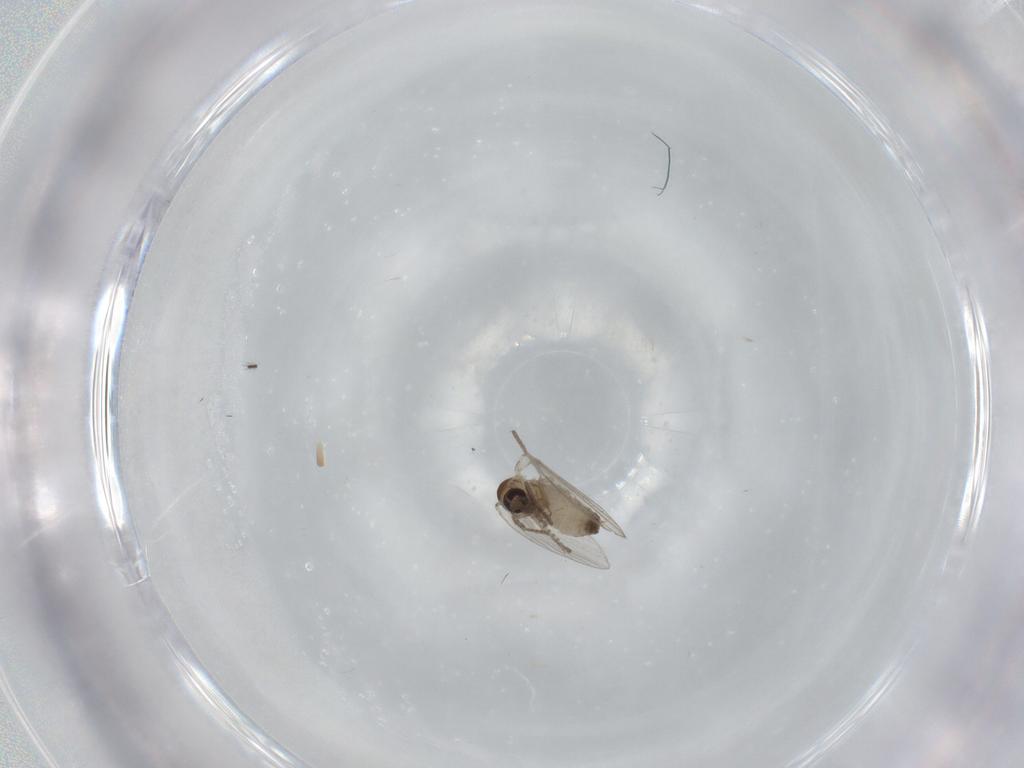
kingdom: Animalia
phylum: Arthropoda
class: Insecta
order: Diptera
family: Psychodidae
